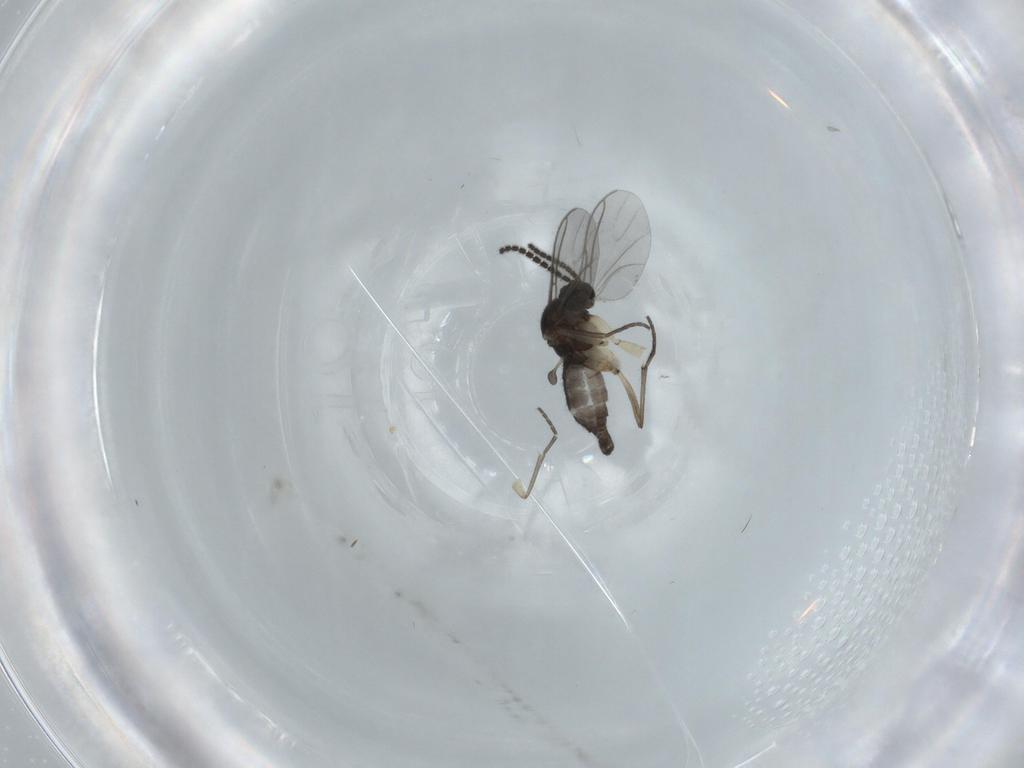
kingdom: Animalia
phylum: Arthropoda
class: Insecta
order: Diptera
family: Sciaridae
